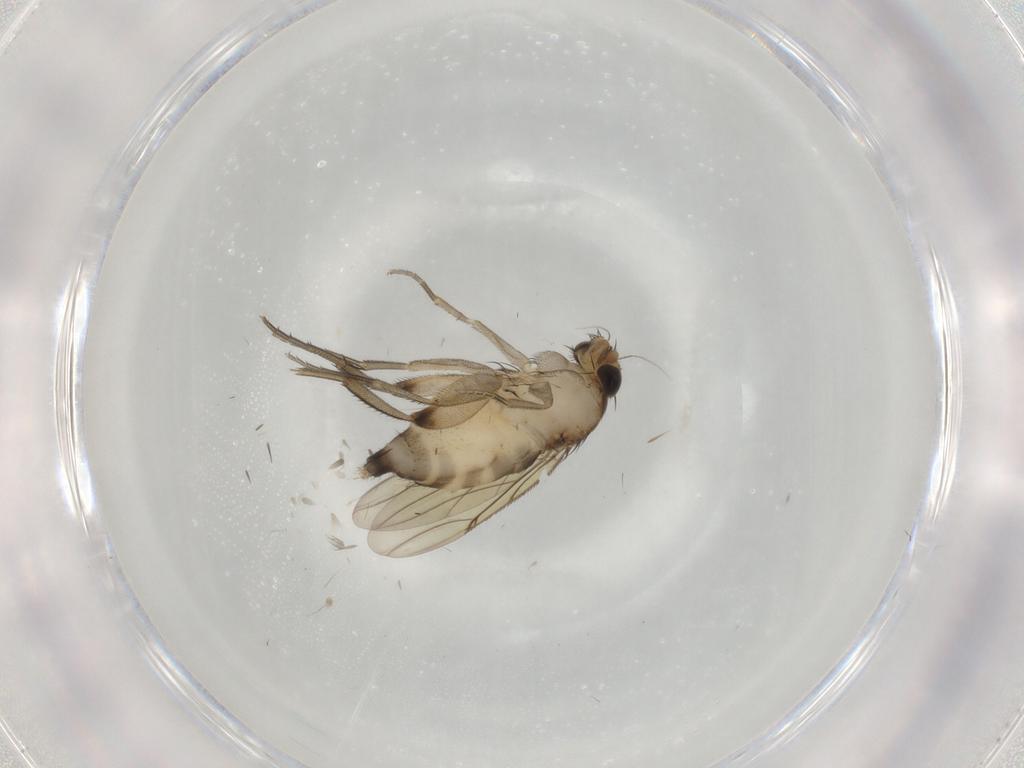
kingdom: Animalia
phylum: Arthropoda
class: Insecta
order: Diptera
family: Phoridae
